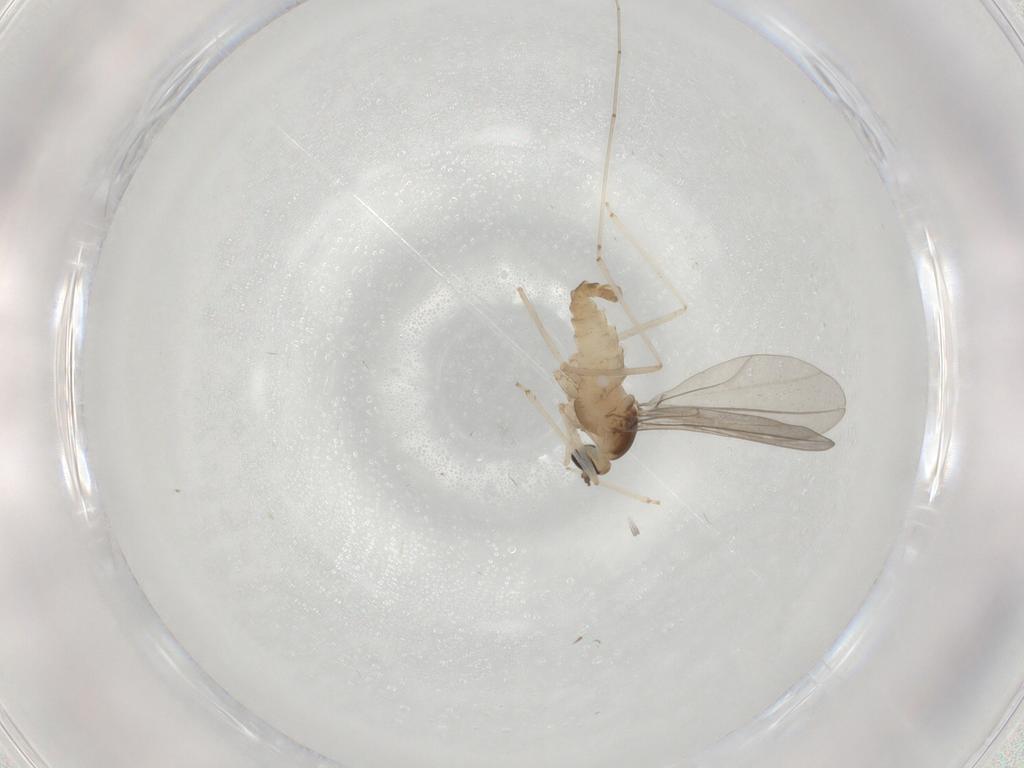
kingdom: Animalia
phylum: Arthropoda
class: Insecta
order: Diptera
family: Cecidomyiidae
